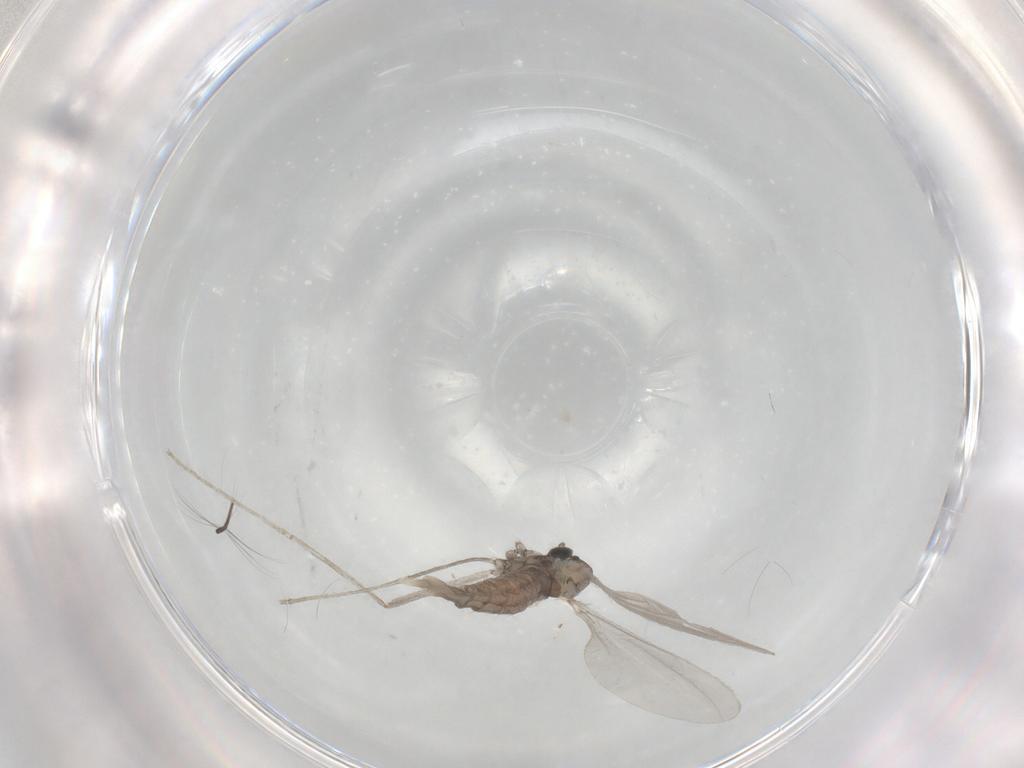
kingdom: Animalia
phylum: Arthropoda
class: Insecta
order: Diptera
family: Cecidomyiidae
